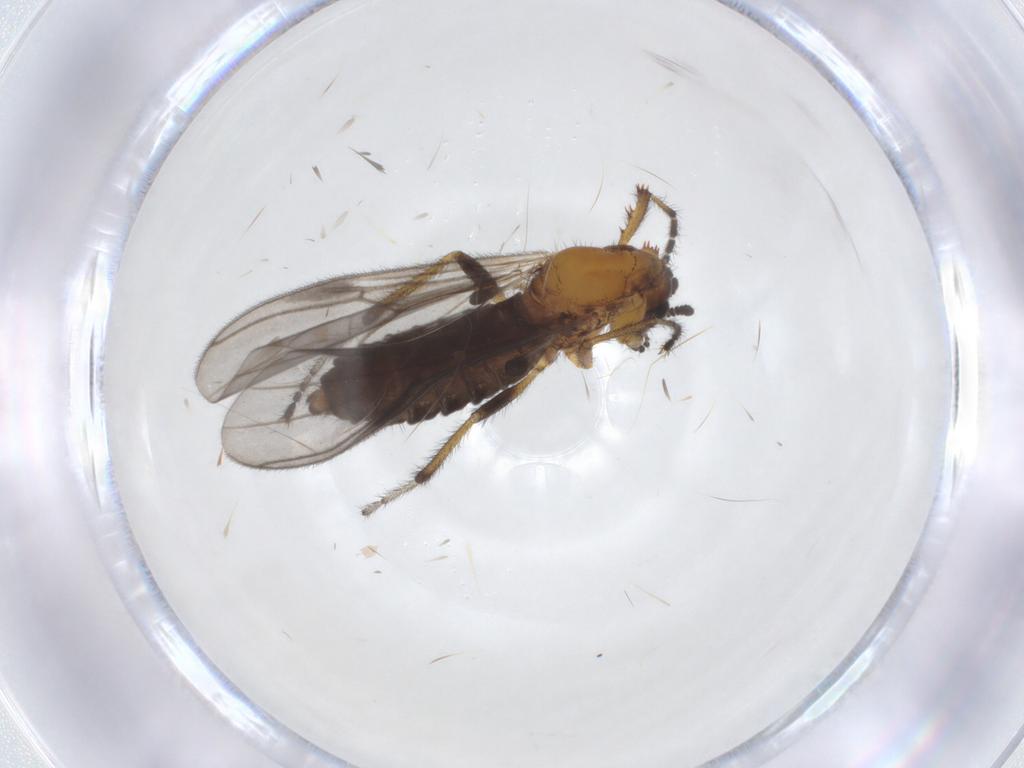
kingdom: Animalia
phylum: Arthropoda
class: Insecta
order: Diptera
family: Bibionidae
